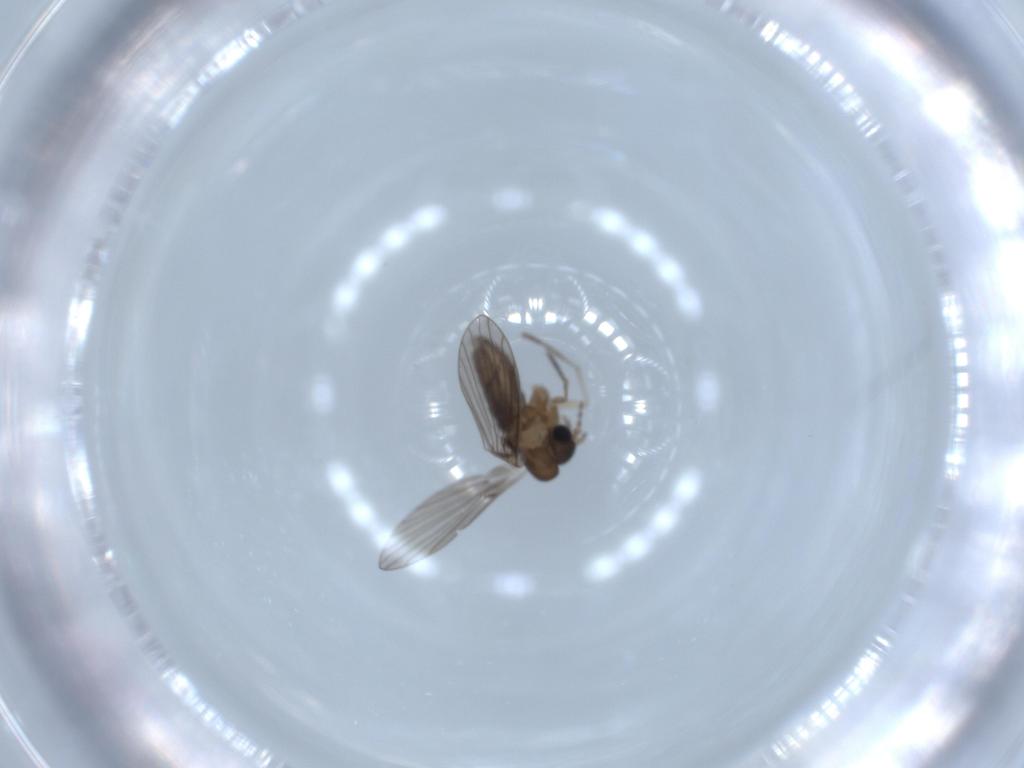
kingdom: Animalia
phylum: Arthropoda
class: Insecta
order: Diptera
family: Psychodidae
